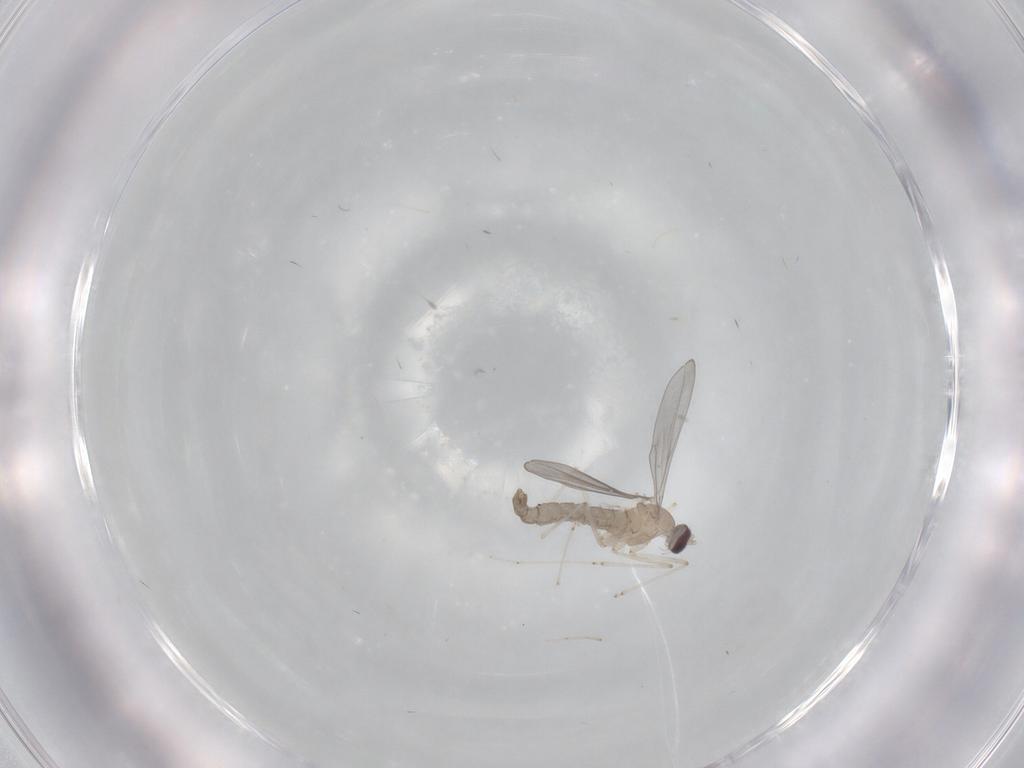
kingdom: Animalia
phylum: Arthropoda
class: Insecta
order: Diptera
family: Cecidomyiidae
